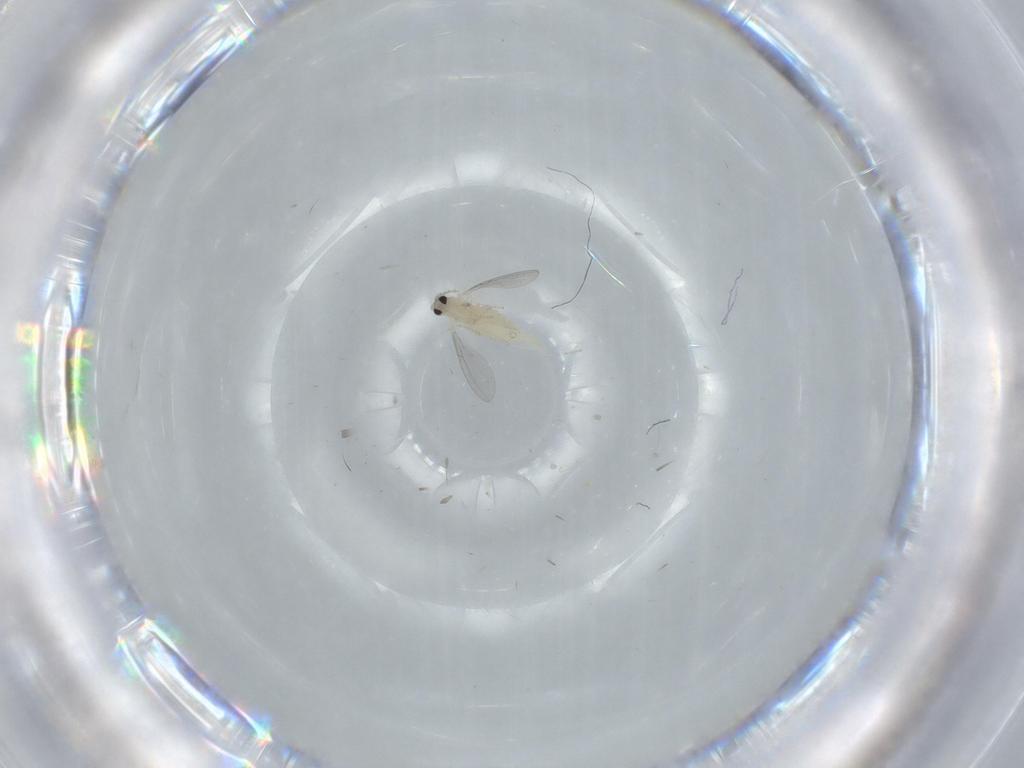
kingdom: Animalia
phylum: Arthropoda
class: Insecta
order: Diptera
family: Cecidomyiidae
